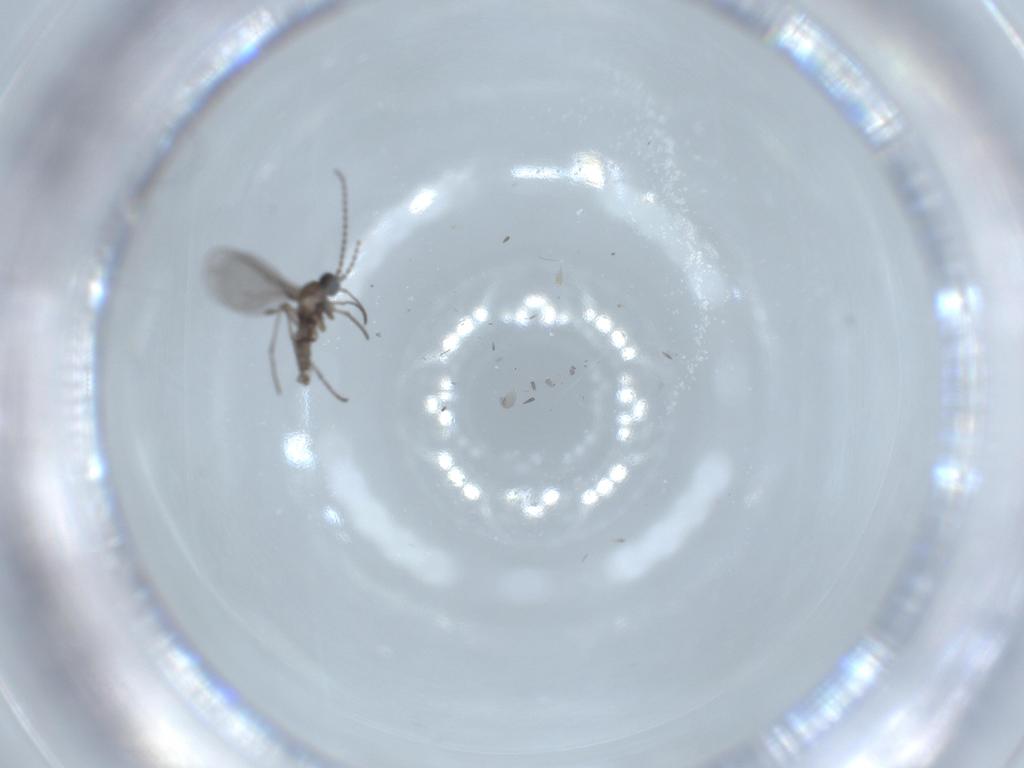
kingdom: Animalia
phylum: Arthropoda
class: Insecta
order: Diptera
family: Sciaridae
